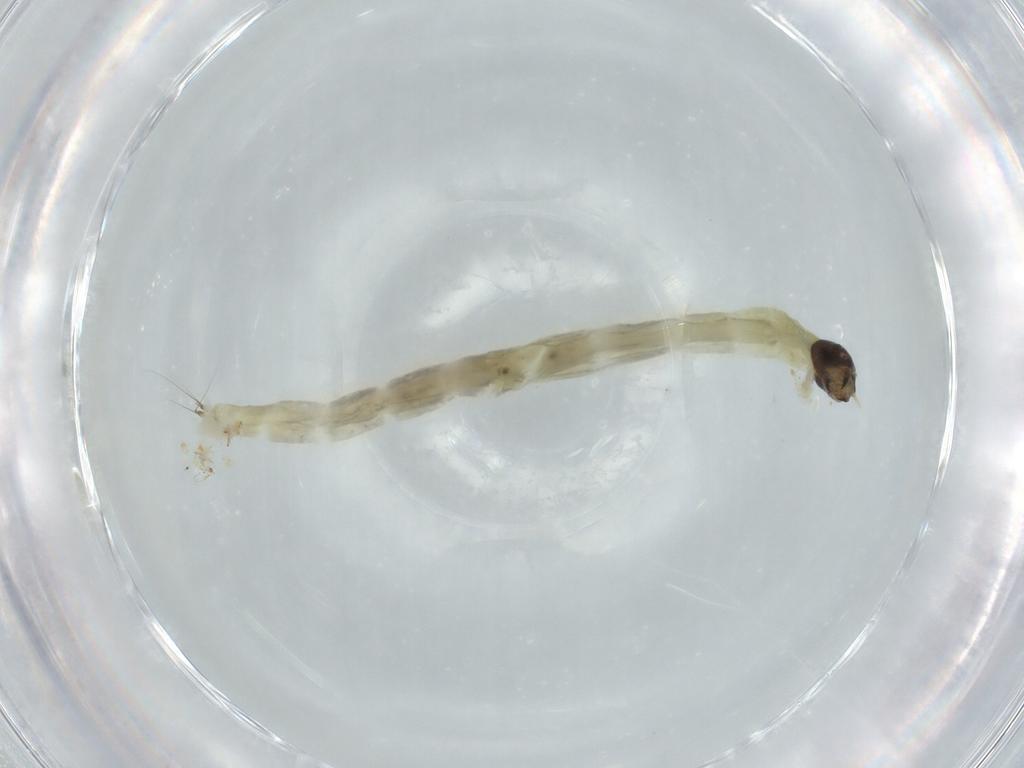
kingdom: Animalia
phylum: Arthropoda
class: Insecta
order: Diptera
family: Chironomidae
